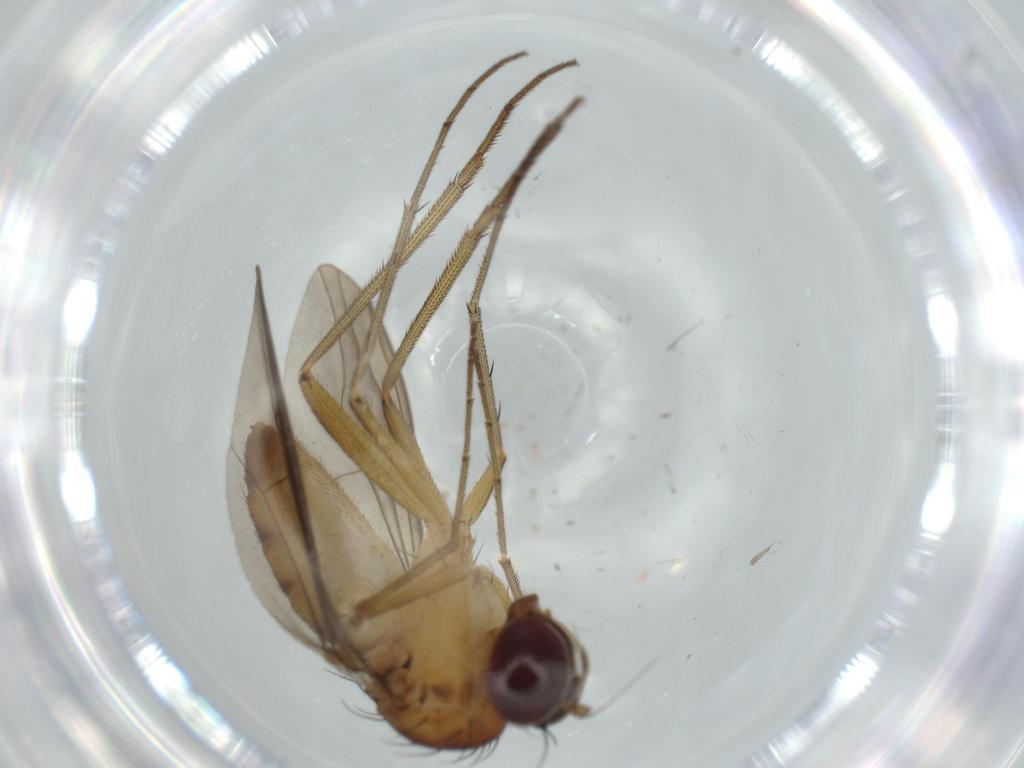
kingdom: Animalia
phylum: Arthropoda
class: Insecta
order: Diptera
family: Dolichopodidae
